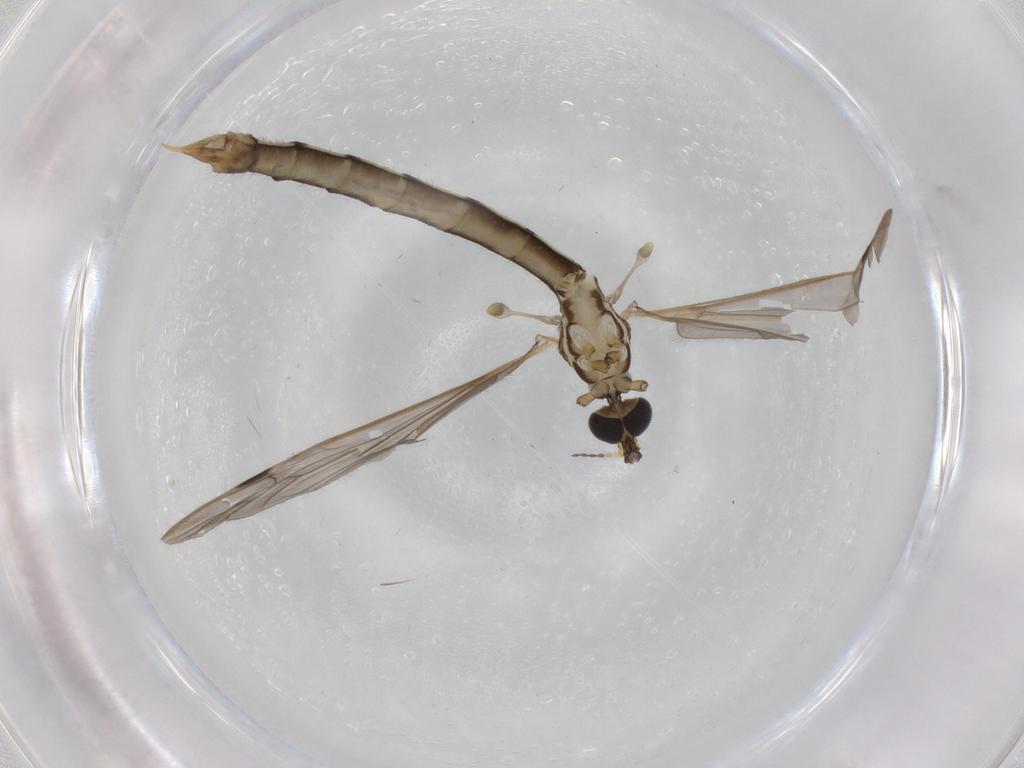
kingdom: Animalia
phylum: Arthropoda
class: Insecta
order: Diptera
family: Limoniidae
